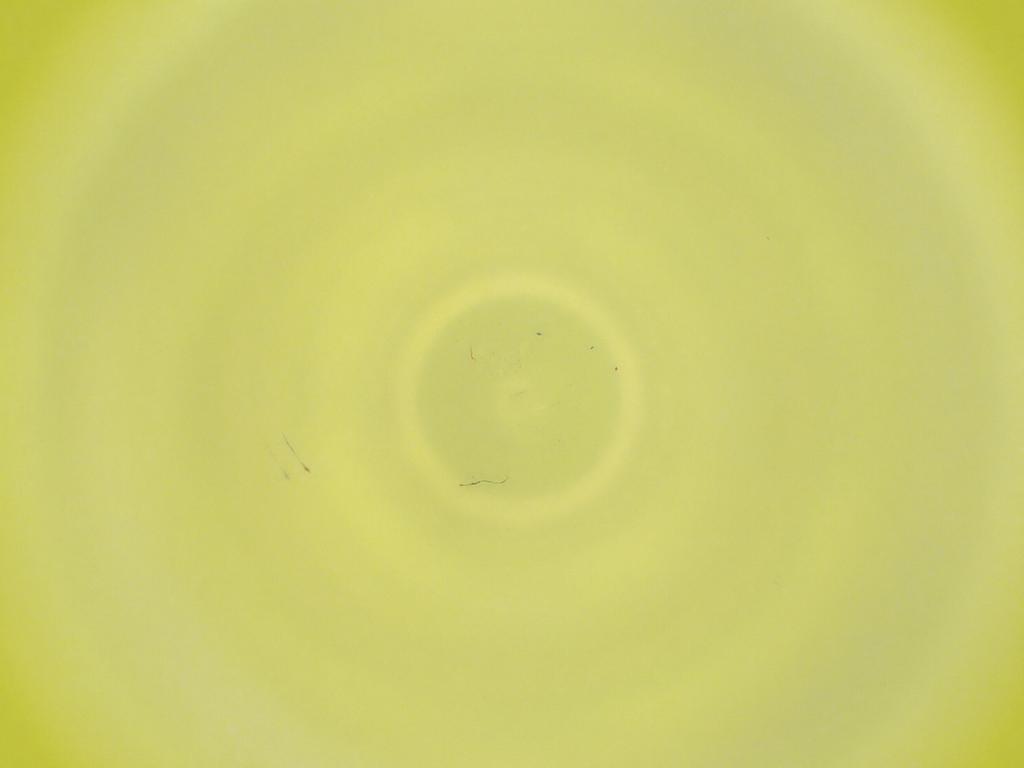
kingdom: Animalia
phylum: Arthropoda
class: Insecta
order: Diptera
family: Cecidomyiidae
